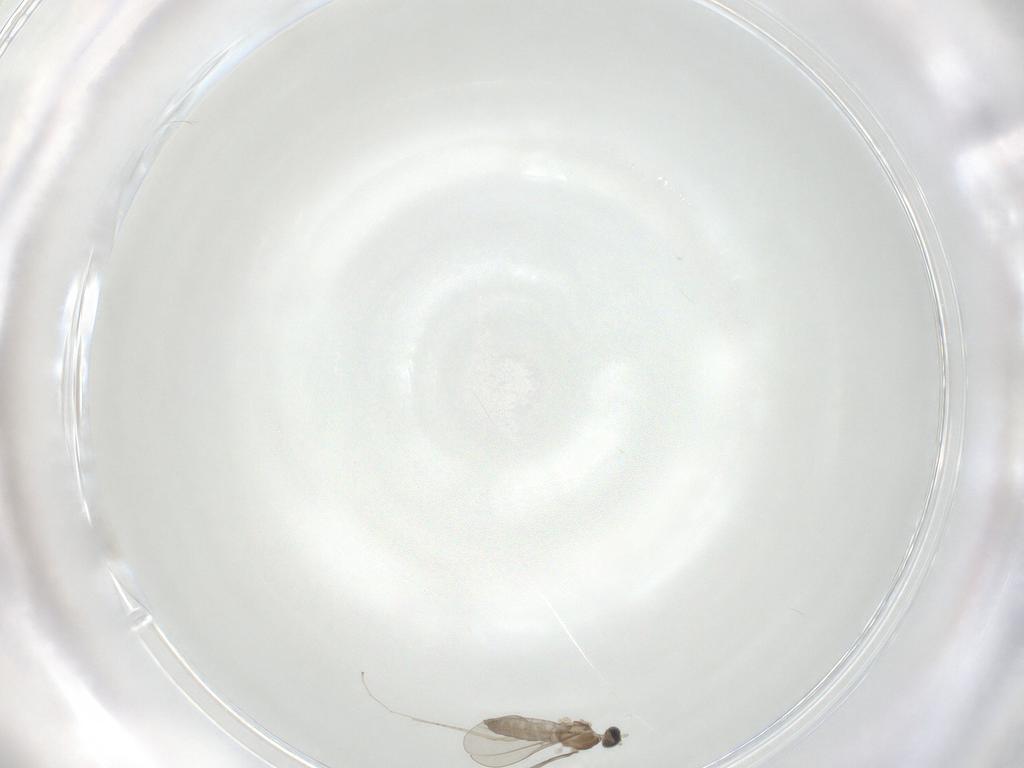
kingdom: Animalia
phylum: Arthropoda
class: Insecta
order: Diptera
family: Cecidomyiidae
